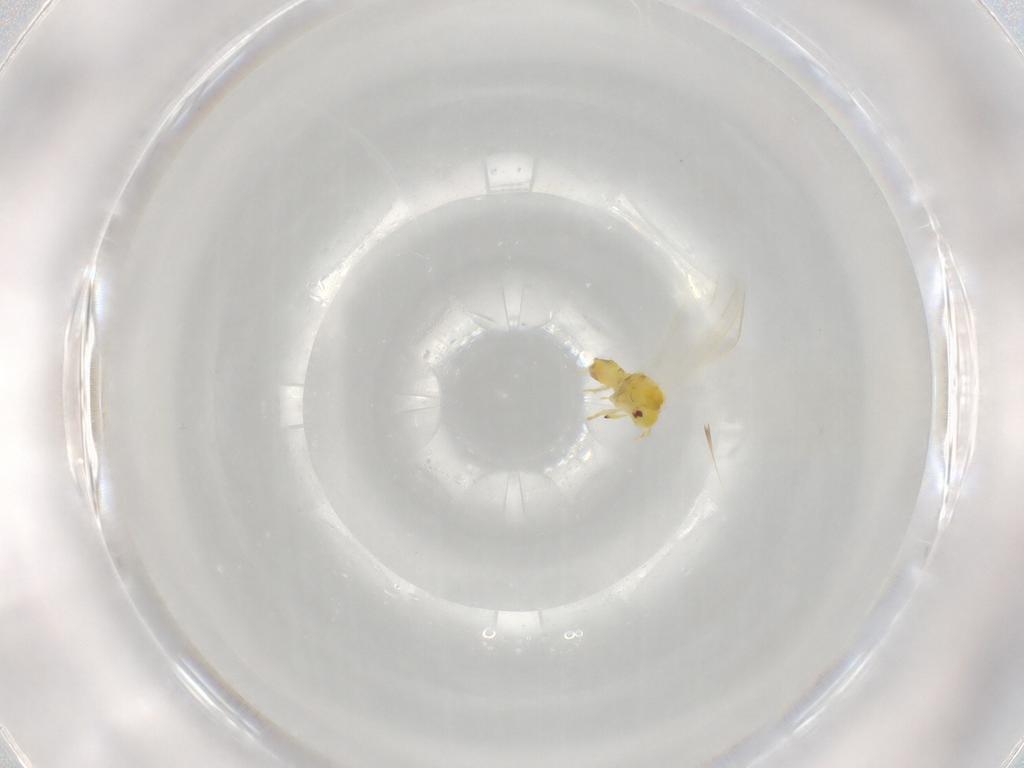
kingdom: Animalia
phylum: Arthropoda
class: Insecta
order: Hemiptera
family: Aleyrodidae
